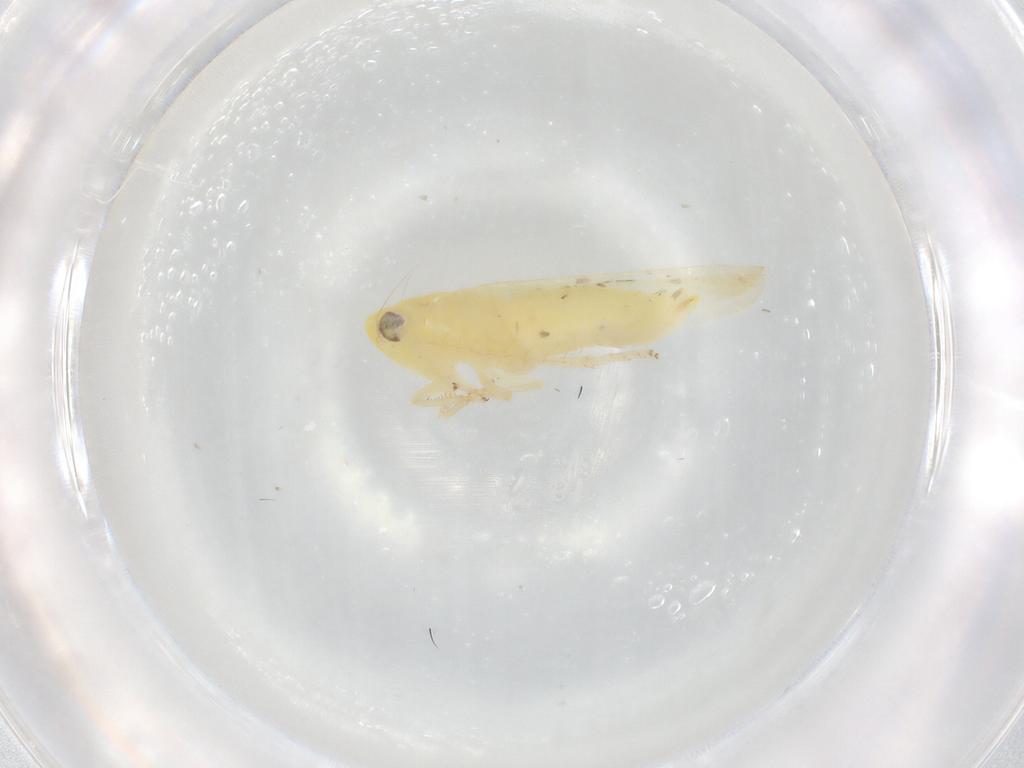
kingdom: Animalia
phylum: Arthropoda
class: Insecta
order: Hemiptera
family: Cicadellidae
